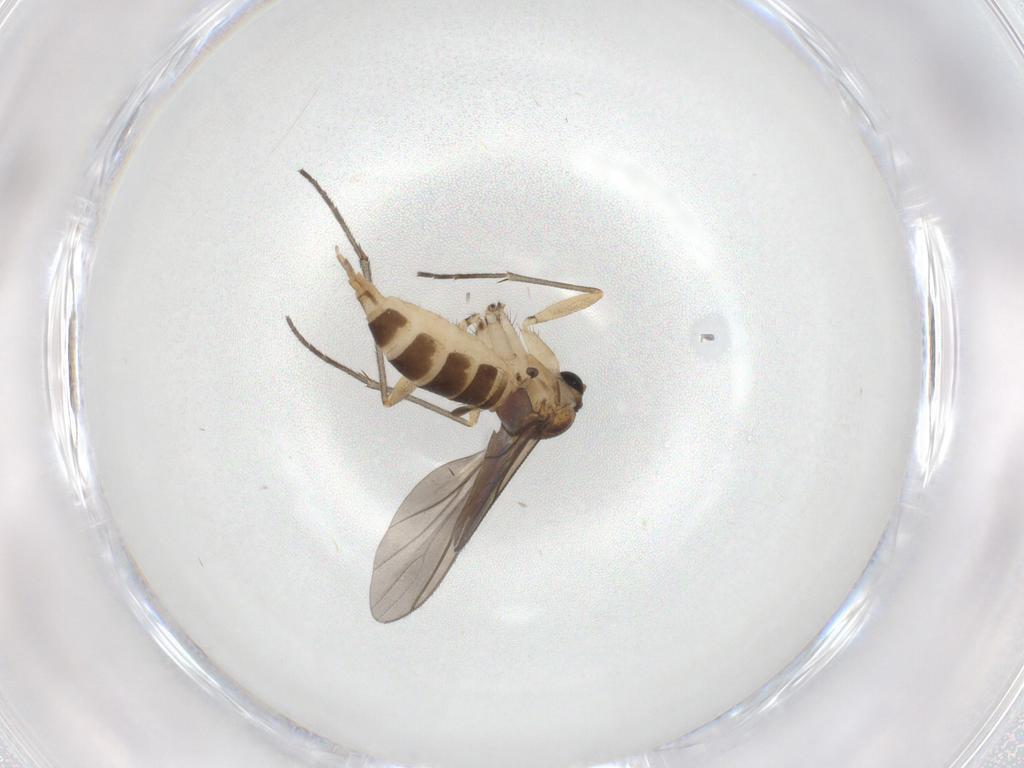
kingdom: Animalia
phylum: Arthropoda
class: Insecta
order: Diptera
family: Sciaridae
